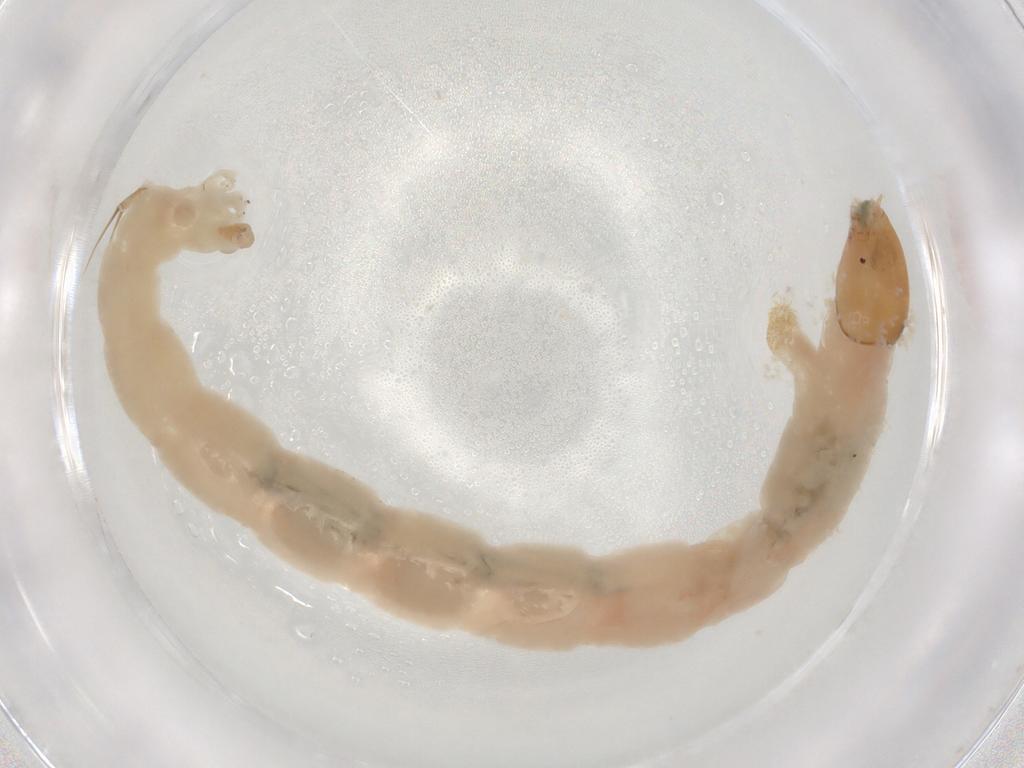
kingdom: Animalia
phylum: Arthropoda
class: Insecta
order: Diptera
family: Chironomidae
